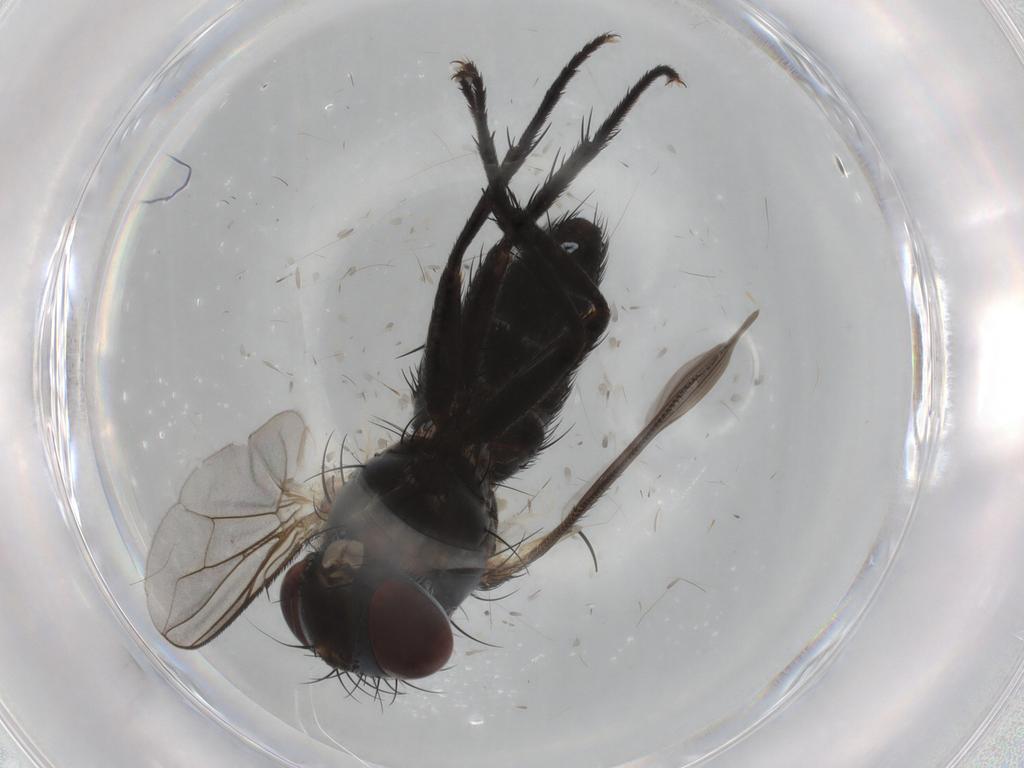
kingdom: Animalia
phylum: Arthropoda
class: Insecta
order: Diptera
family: Tachinidae
